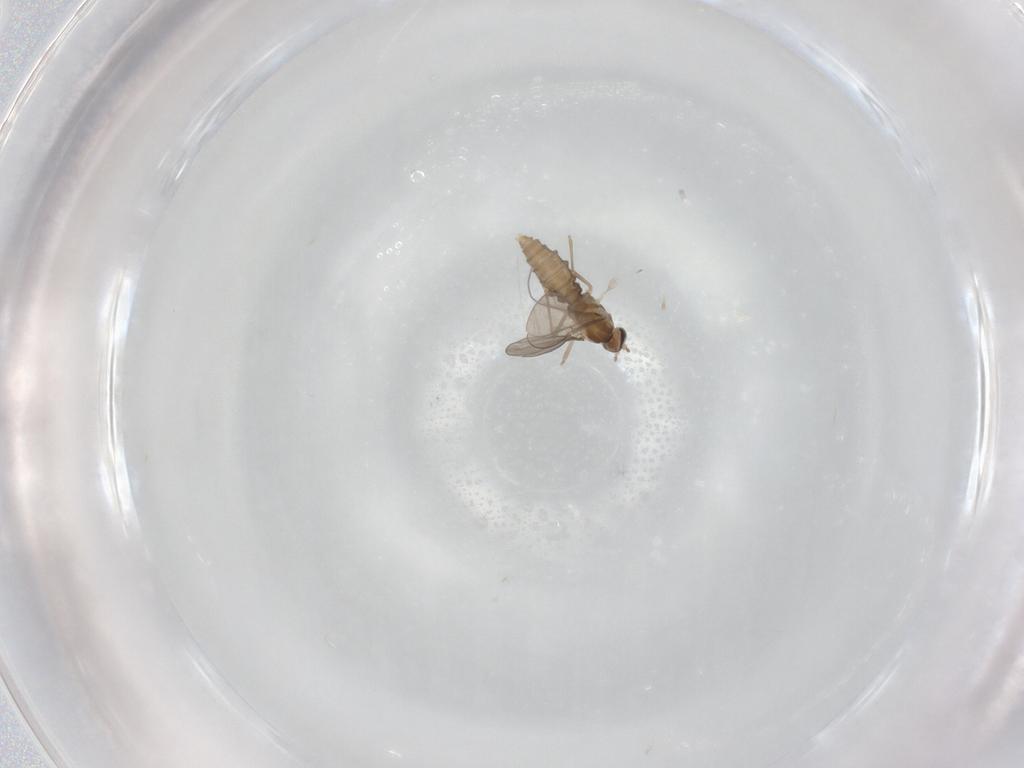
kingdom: Animalia
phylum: Arthropoda
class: Insecta
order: Diptera
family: Cecidomyiidae
